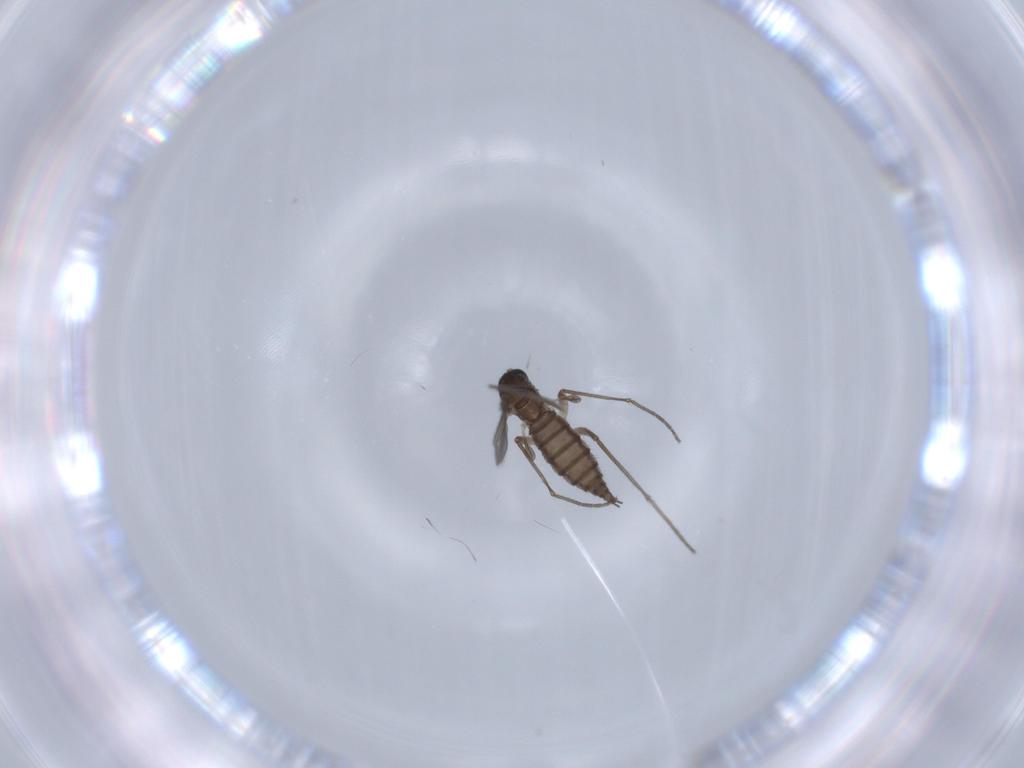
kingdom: Animalia
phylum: Arthropoda
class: Insecta
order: Diptera
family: Sciaridae
